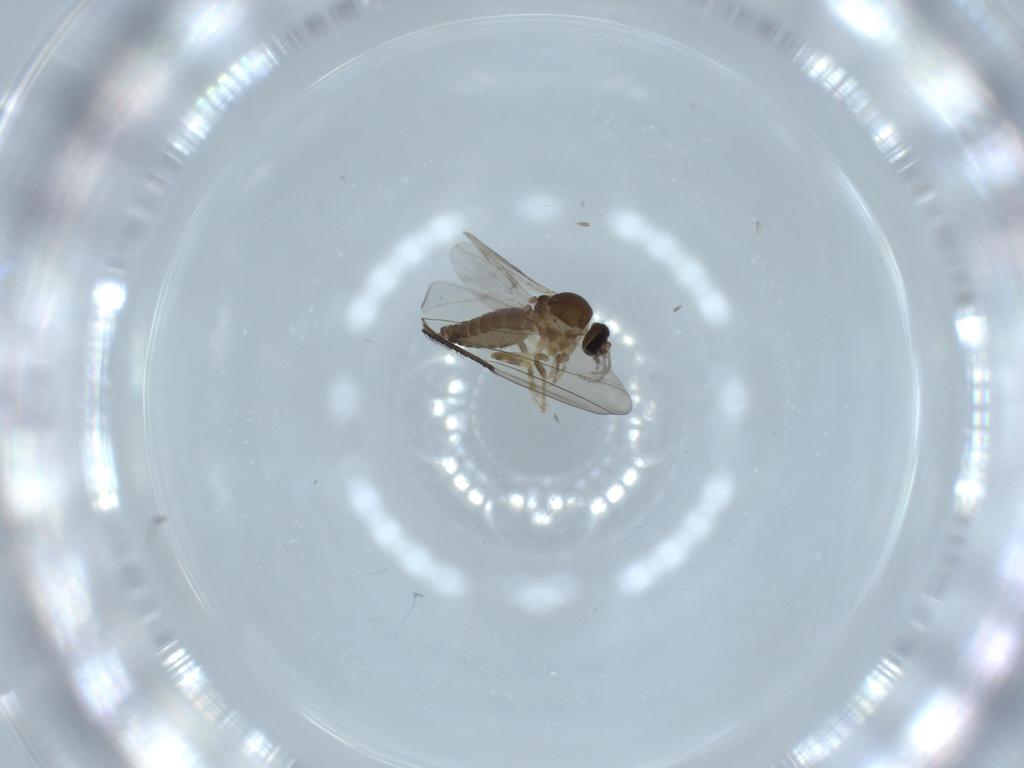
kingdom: Animalia
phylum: Arthropoda
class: Insecta
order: Diptera
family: Phoridae
